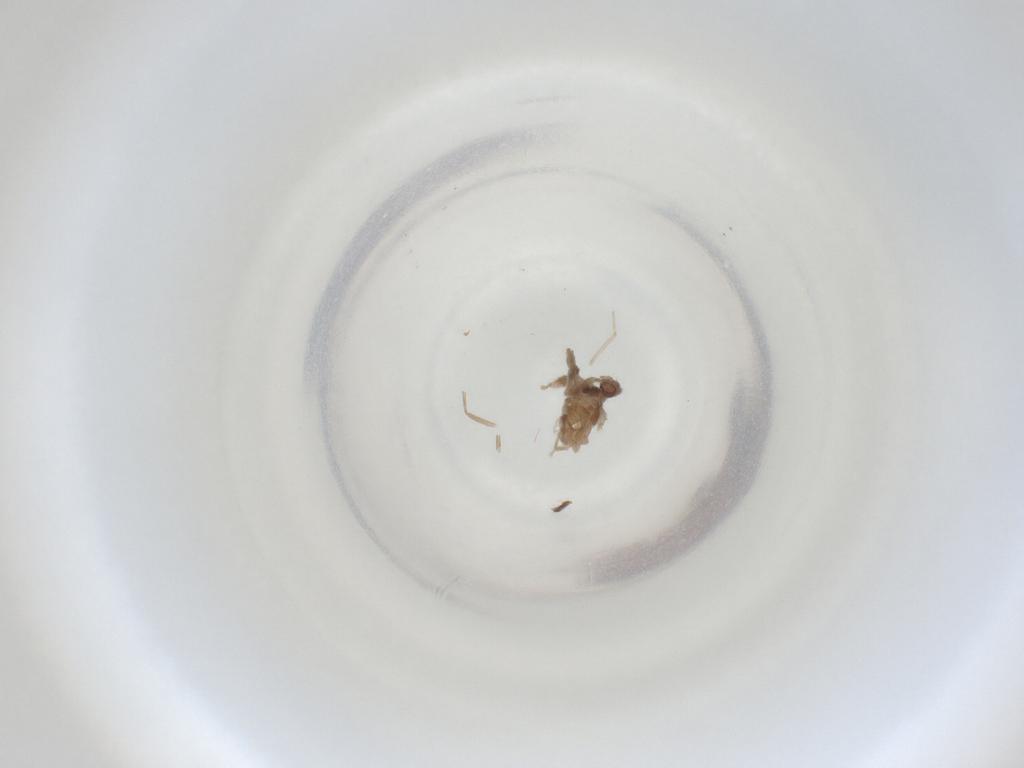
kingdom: Animalia
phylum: Arthropoda
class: Insecta
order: Diptera
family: Cecidomyiidae
